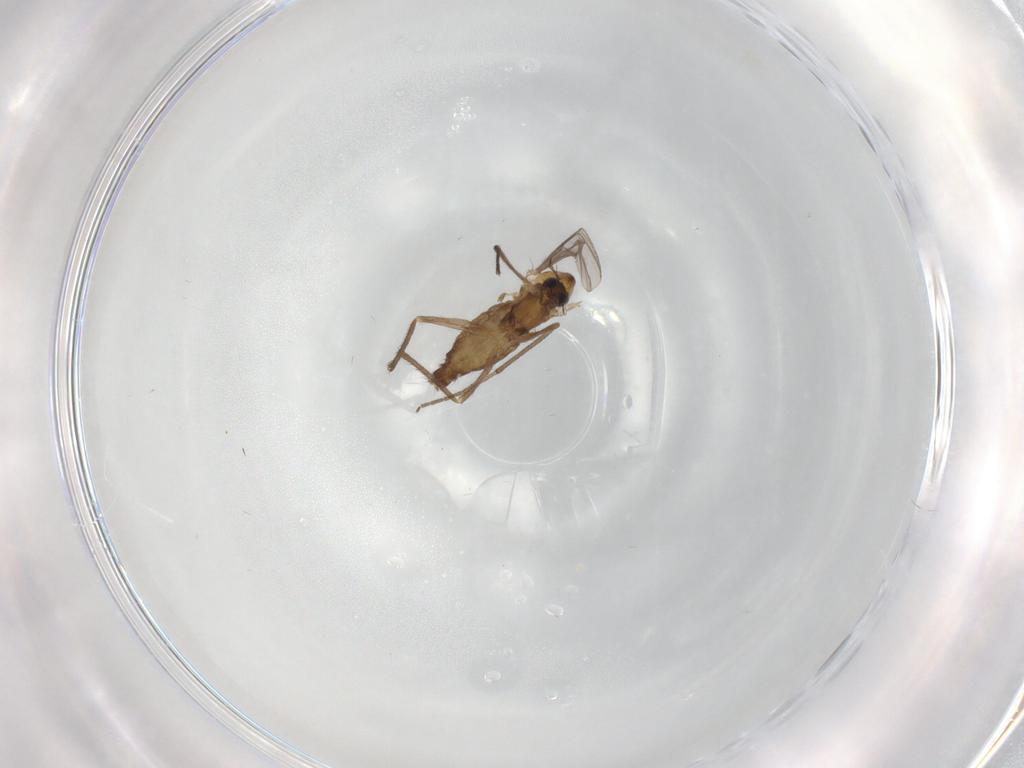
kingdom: Animalia
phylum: Arthropoda
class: Insecta
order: Diptera
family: Chironomidae
